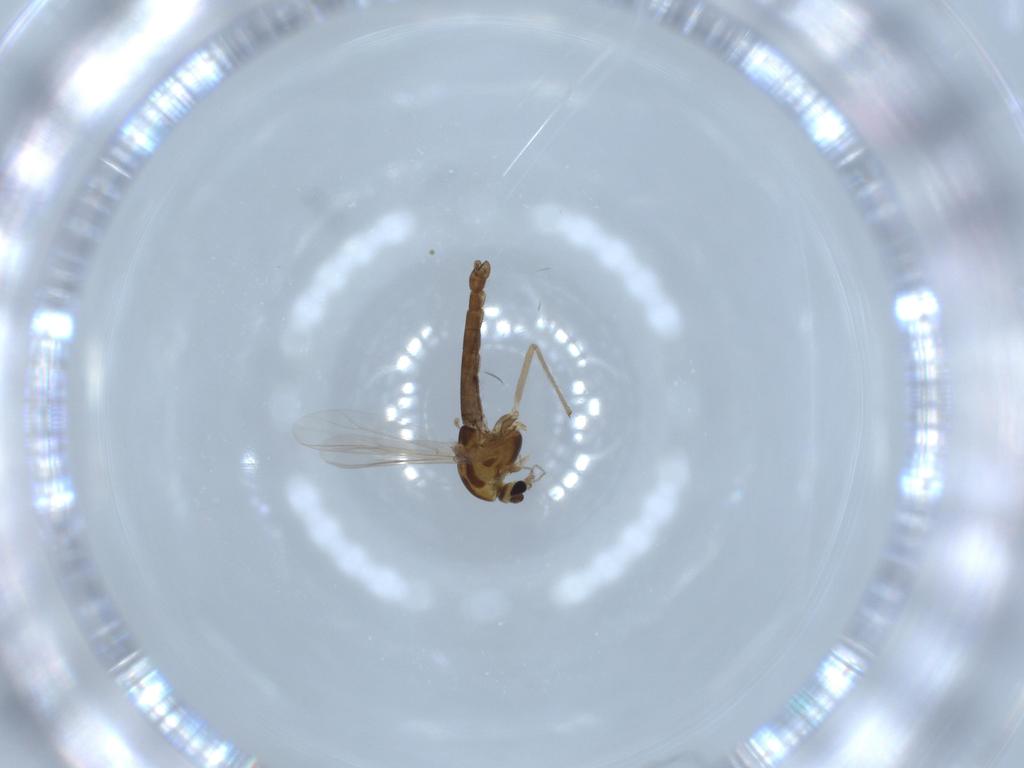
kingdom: Animalia
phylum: Arthropoda
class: Insecta
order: Diptera
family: Chironomidae
